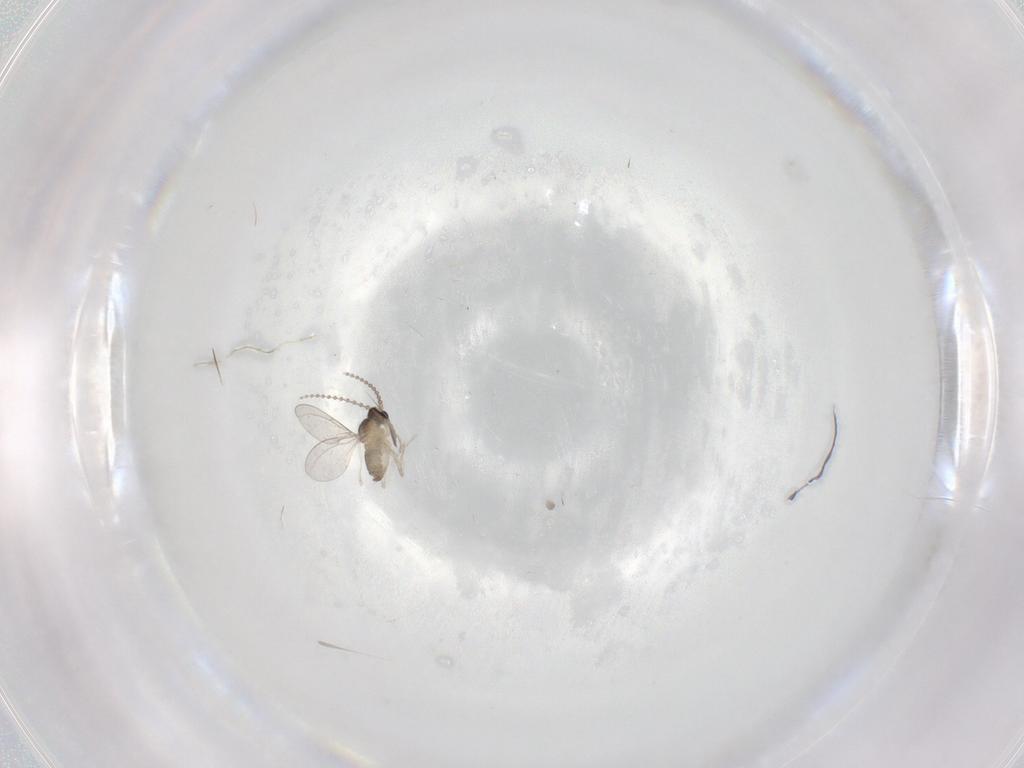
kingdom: Animalia
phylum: Arthropoda
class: Insecta
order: Diptera
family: Cecidomyiidae
